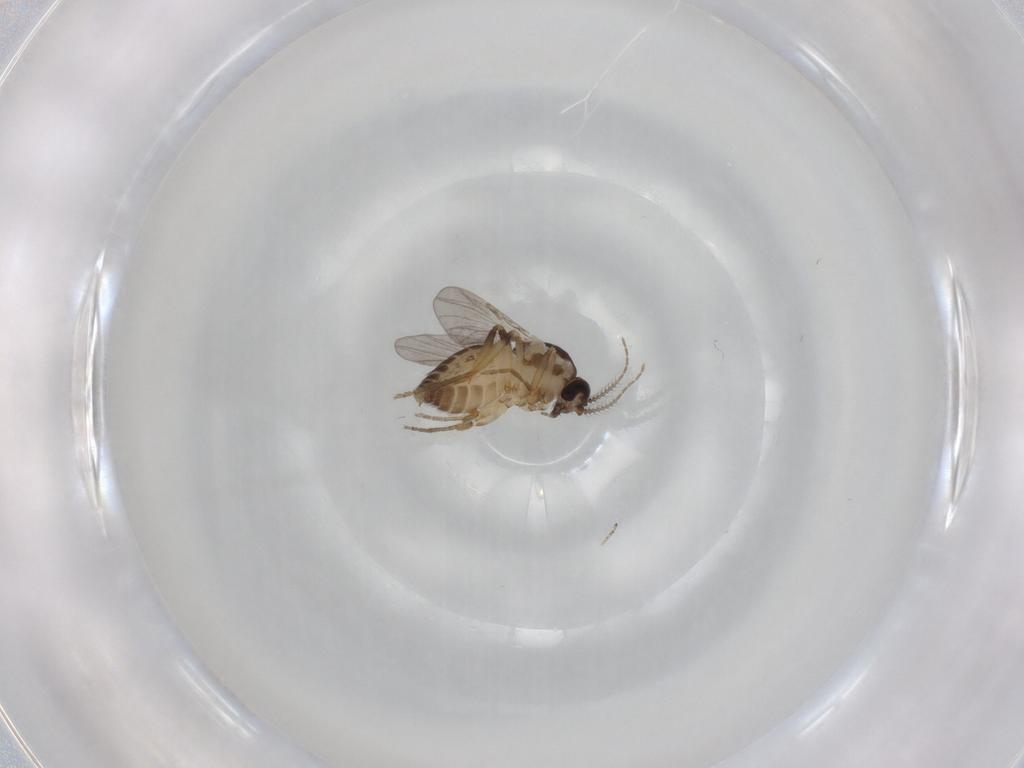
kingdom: Animalia
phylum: Arthropoda
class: Insecta
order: Diptera
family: Ceratopogonidae
